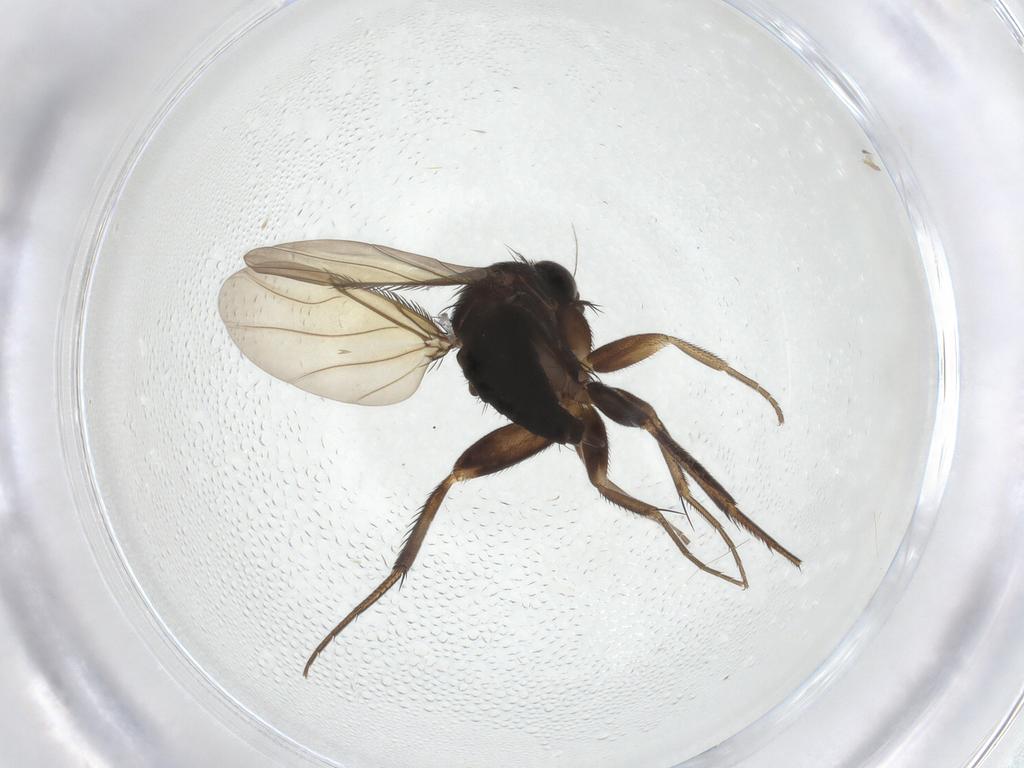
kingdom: Animalia
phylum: Arthropoda
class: Insecta
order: Diptera
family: Phoridae
